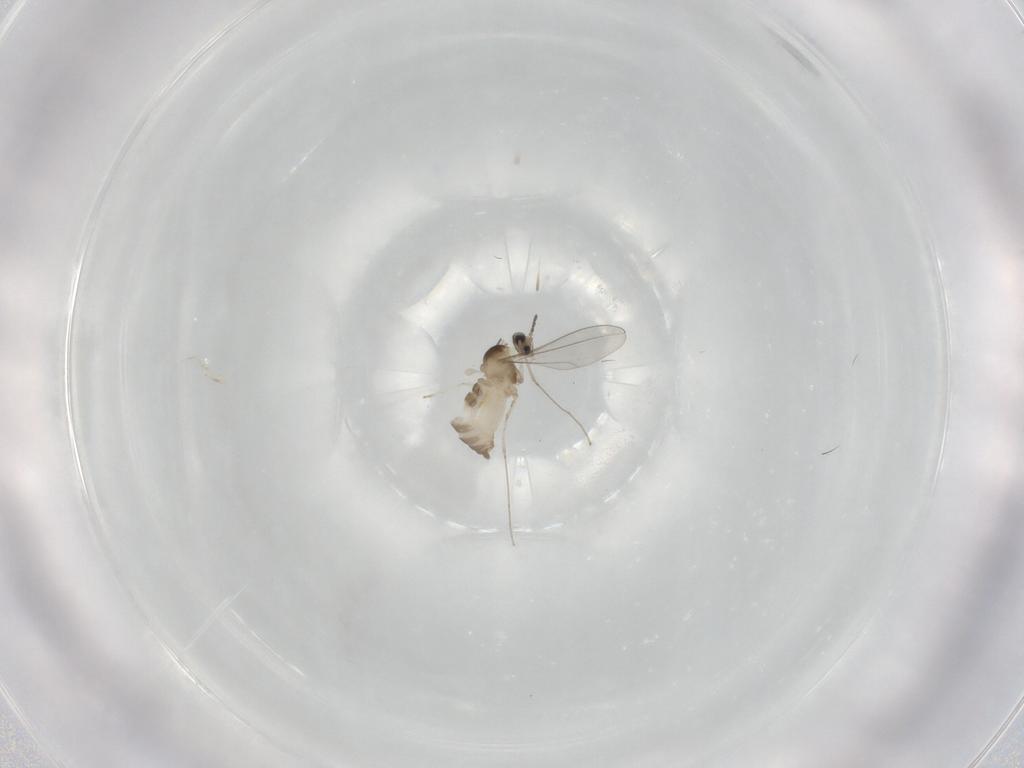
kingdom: Animalia
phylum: Arthropoda
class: Insecta
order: Diptera
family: Cecidomyiidae
